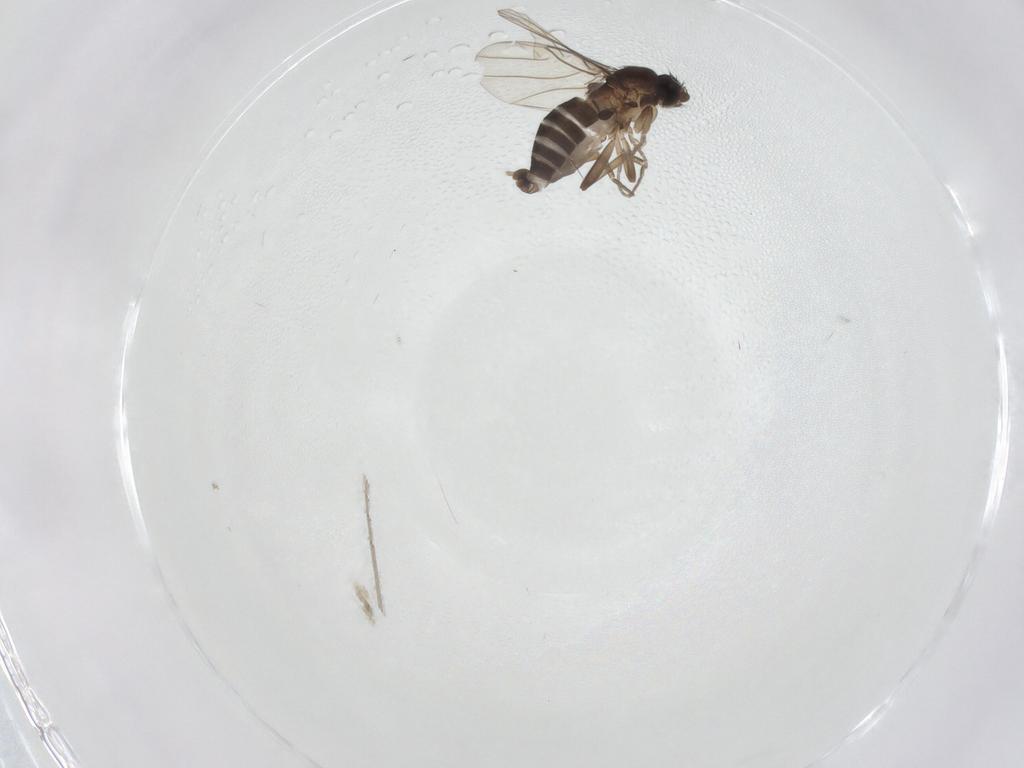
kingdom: Animalia
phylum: Arthropoda
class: Insecta
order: Diptera
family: Phoridae
